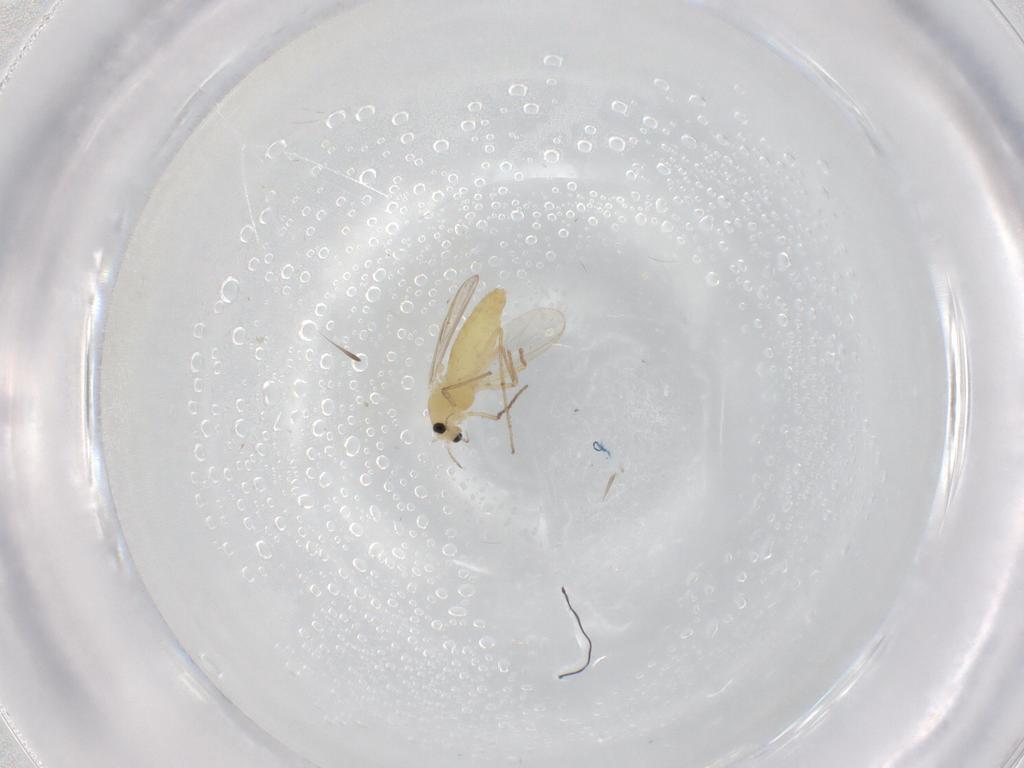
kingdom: Animalia
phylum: Arthropoda
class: Insecta
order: Diptera
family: Chironomidae
